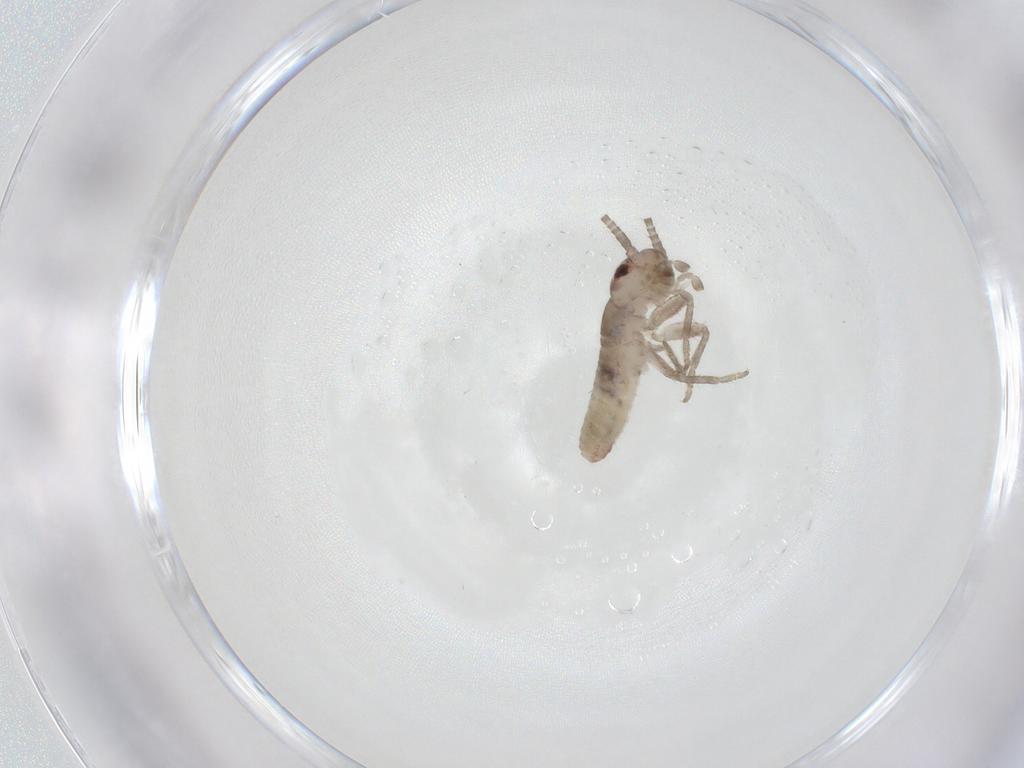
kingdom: Animalia
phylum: Arthropoda
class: Insecta
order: Orthoptera
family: Mogoplistidae
